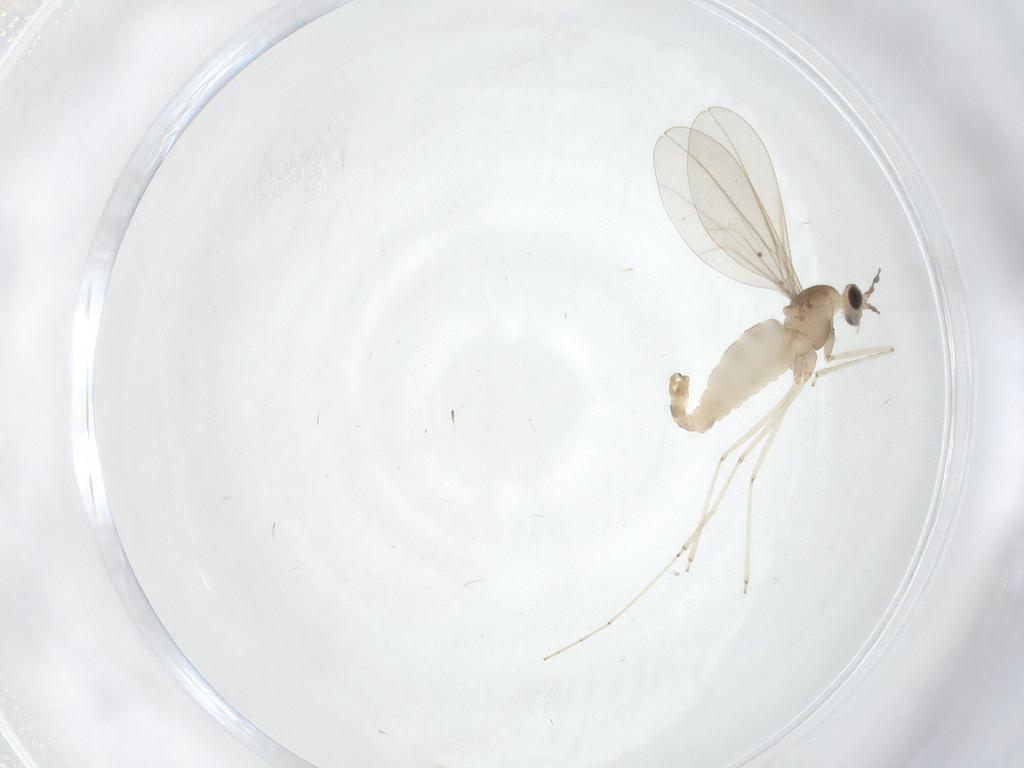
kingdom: Animalia
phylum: Arthropoda
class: Insecta
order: Diptera
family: Cecidomyiidae
